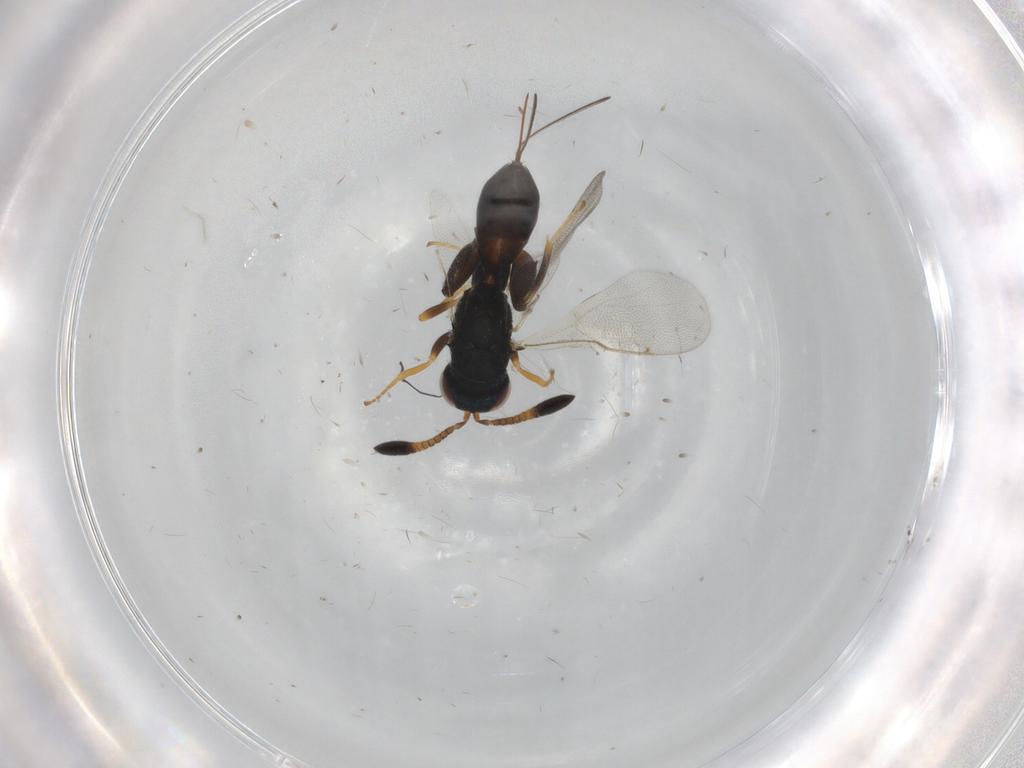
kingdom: Animalia
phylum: Arthropoda
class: Insecta
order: Hymenoptera
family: Torymidae
